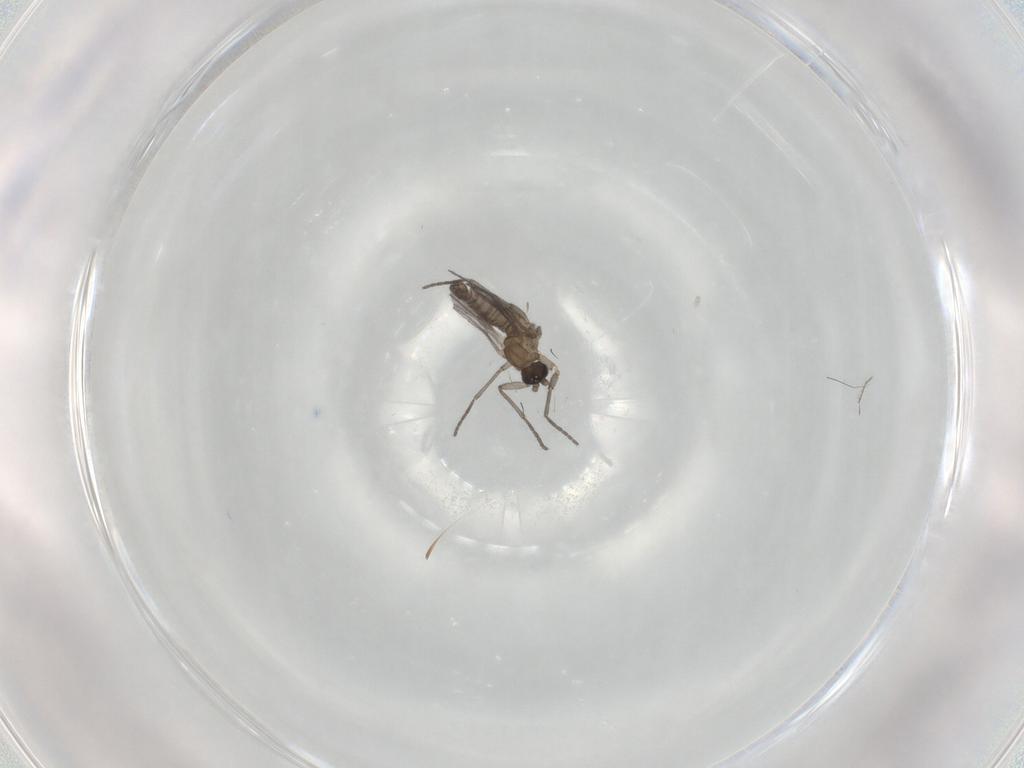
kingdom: Animalia
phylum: Arthropoda
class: Insecta
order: Diptera
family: Sciaridae
